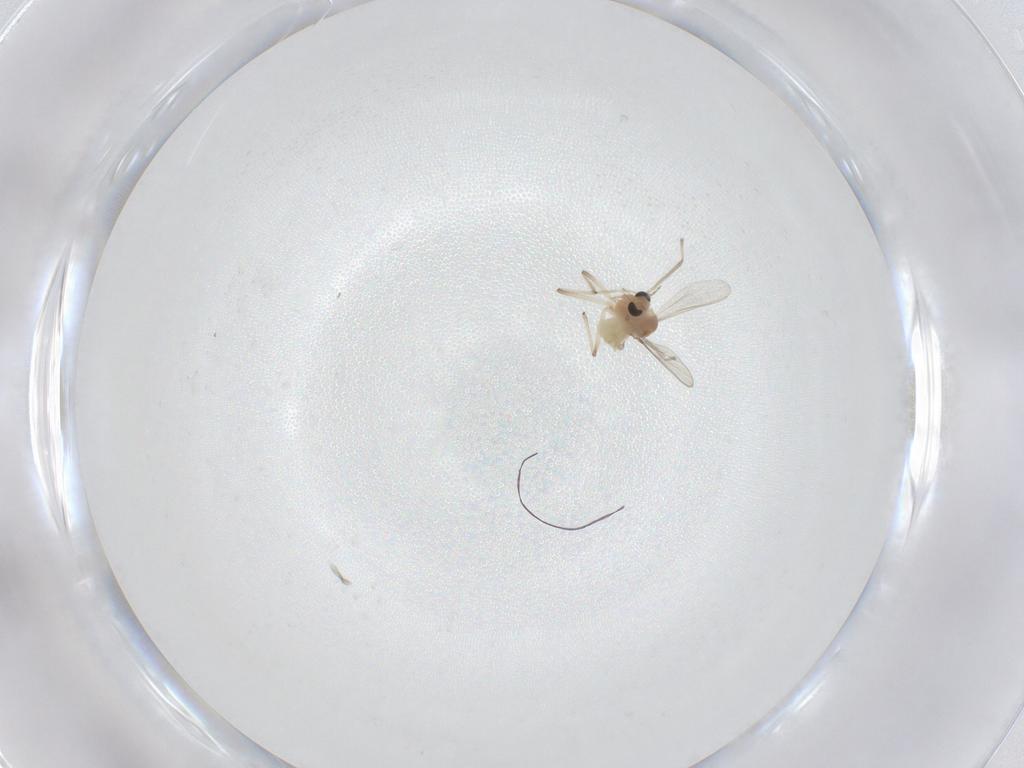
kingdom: Animalia
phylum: Arthropoda
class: Insecta
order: Diptera
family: Chironomidae
